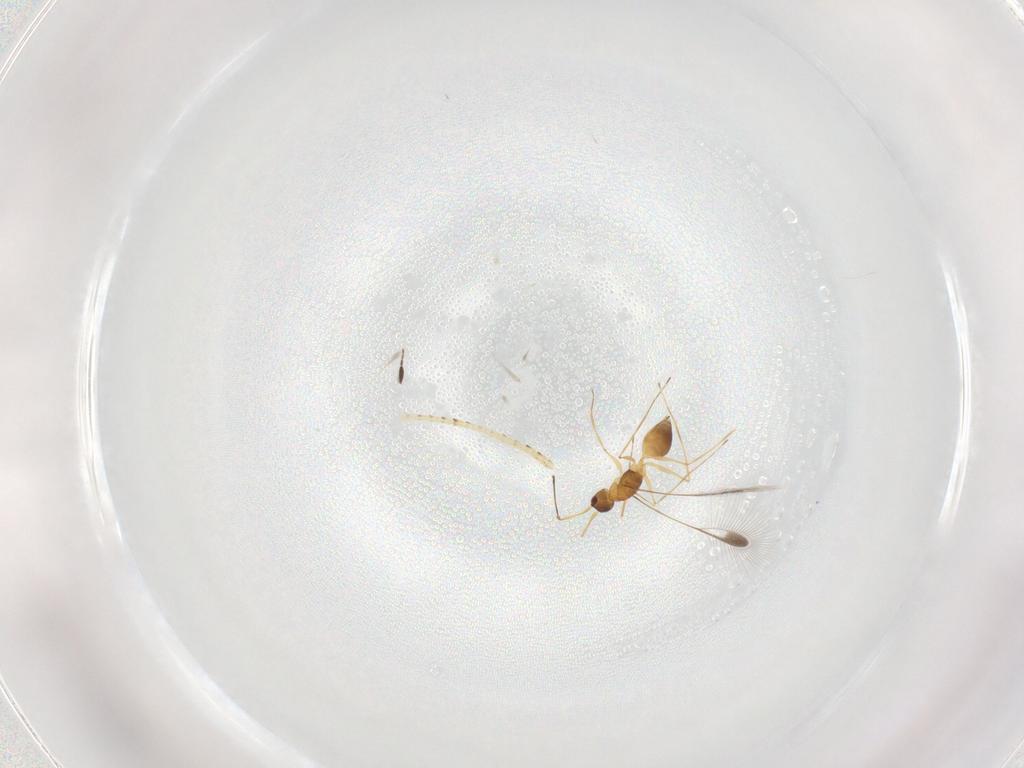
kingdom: Animalia
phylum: Arthropoda
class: Insecta
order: Hymenoptera
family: Mymaridae
